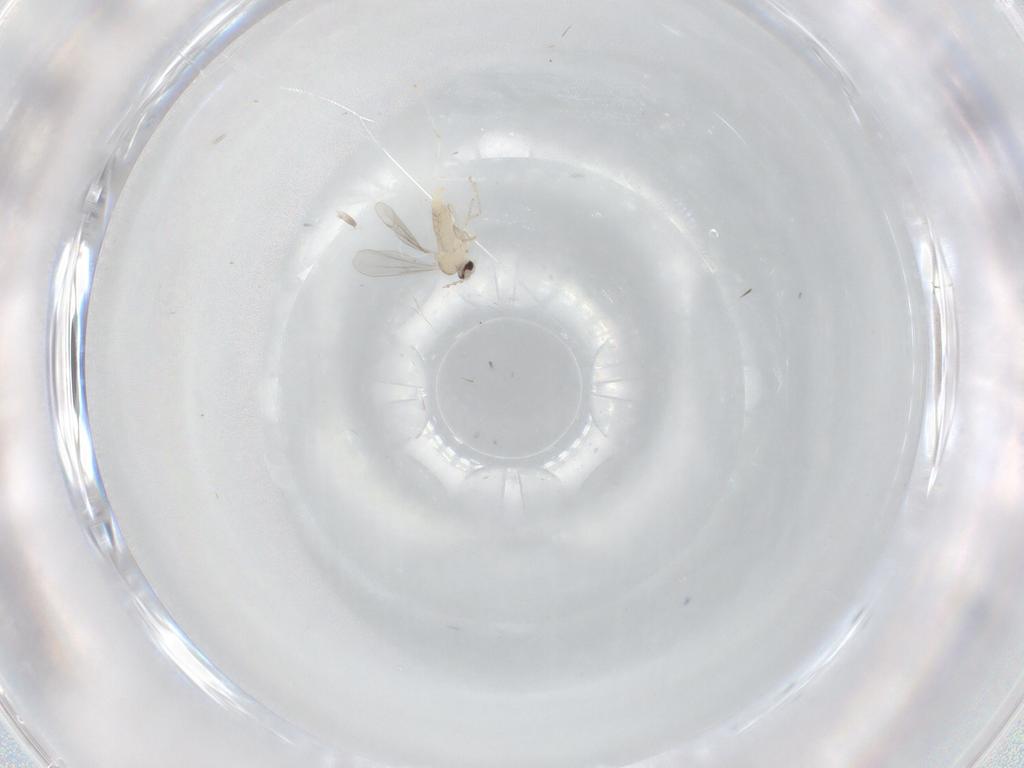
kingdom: Animalia
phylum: Arthropoda
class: Insecta
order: Diptera
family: Cecidomyiidae
